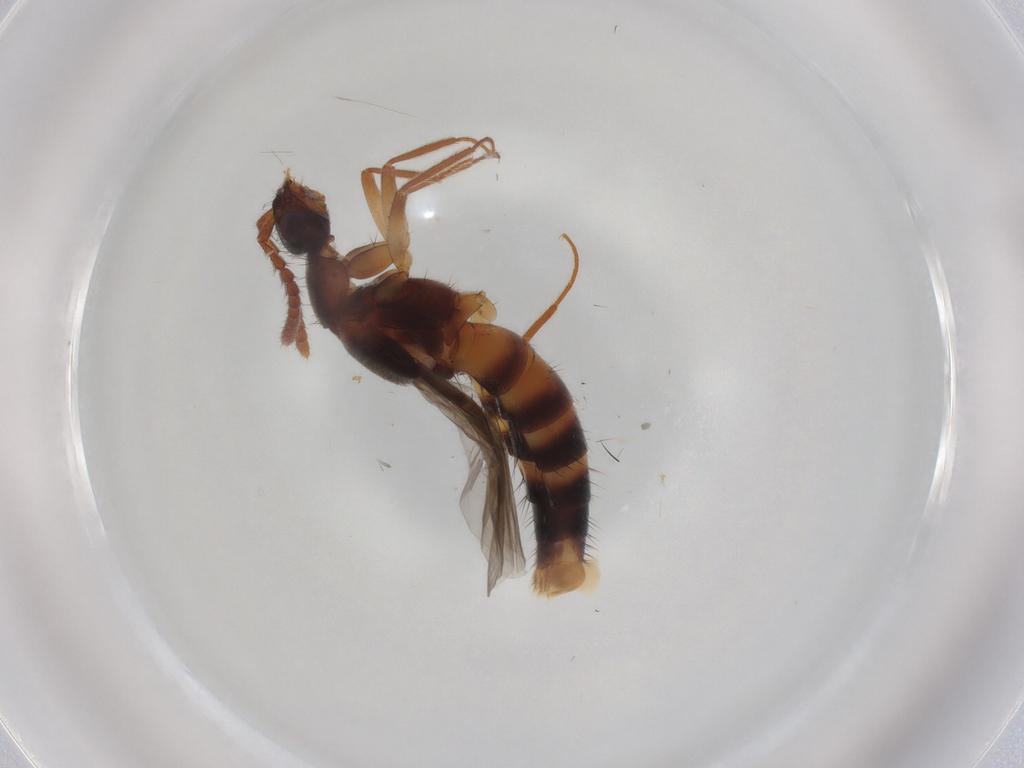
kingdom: Animalia
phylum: Arthropoda
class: Insecta
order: Coleoptera
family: Staphylinidae
